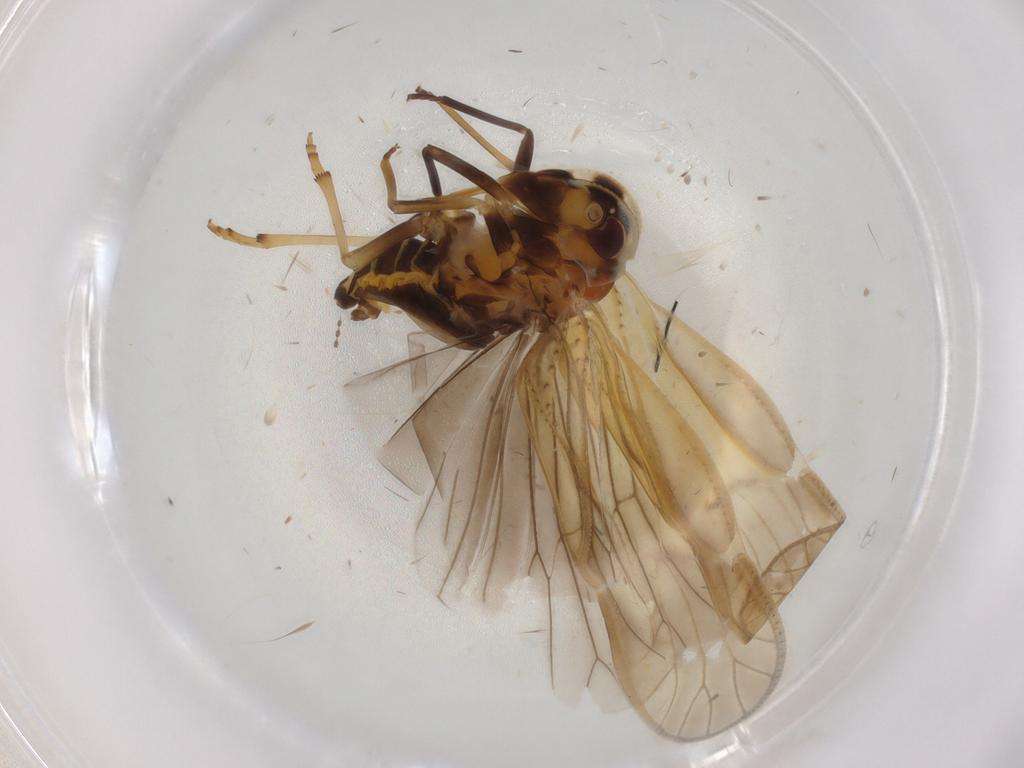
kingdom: Animalia
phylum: Arthropoda
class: Insecta
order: Hemiptera
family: Meenoplidae
